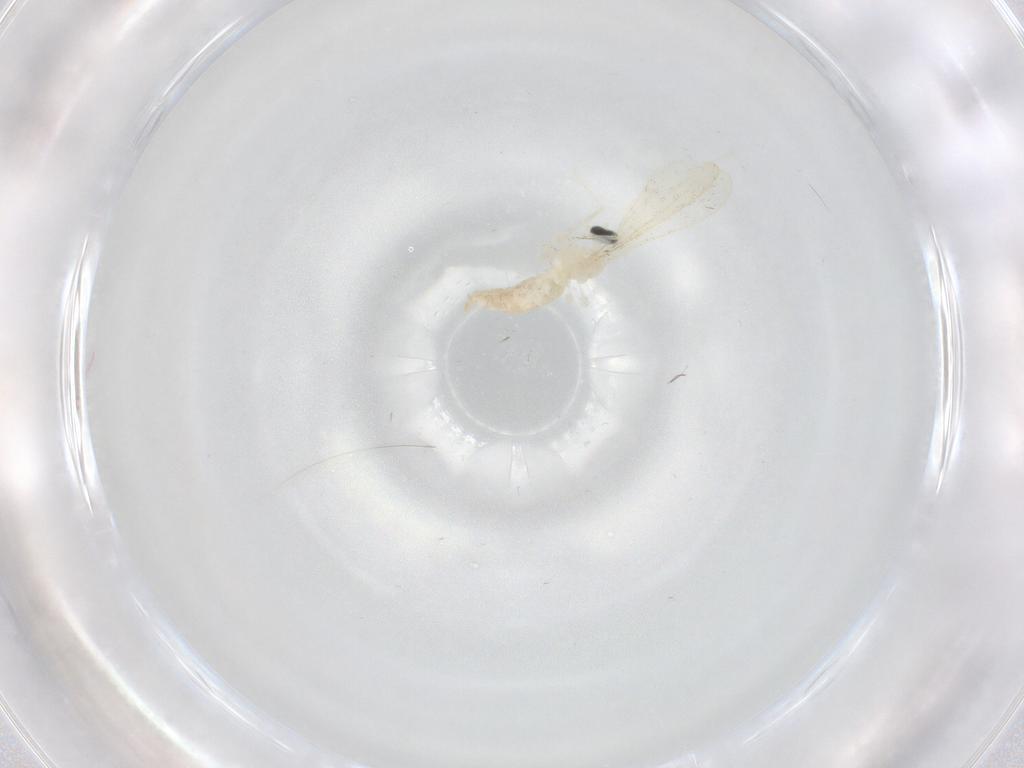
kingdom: Animalia
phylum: Arthropoda
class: Insecta
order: Diptera
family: Cecidomyiidae
